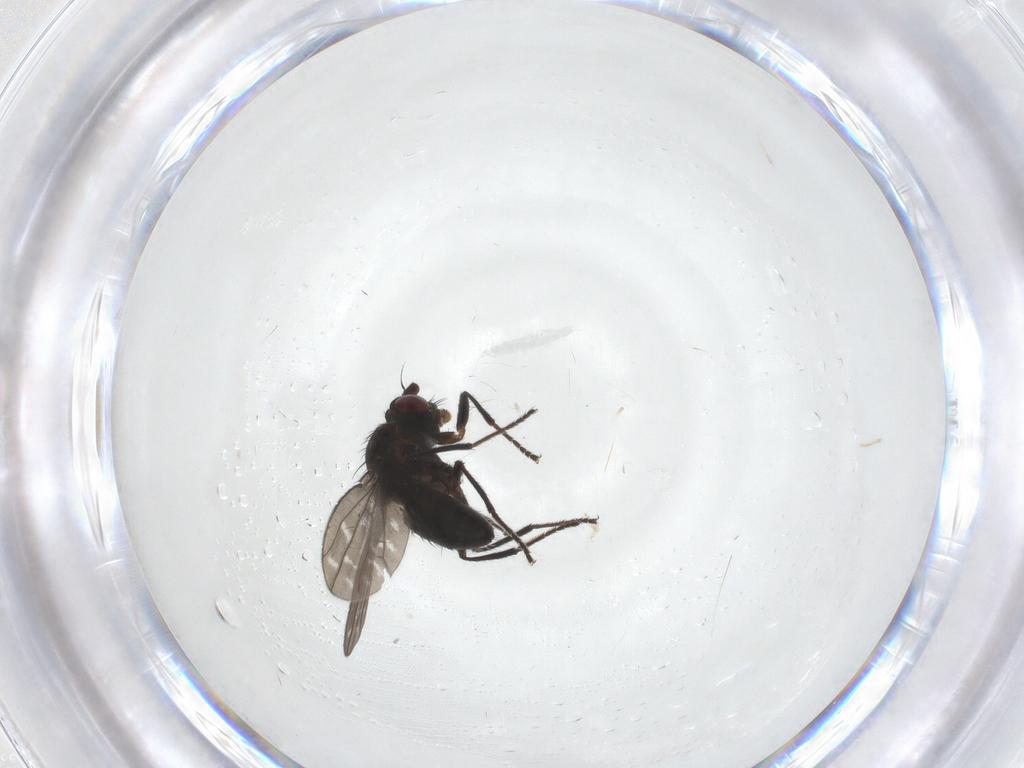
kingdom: Animalia
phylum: Arthropoda
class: Insecta
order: Diptera
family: Ephydridae
